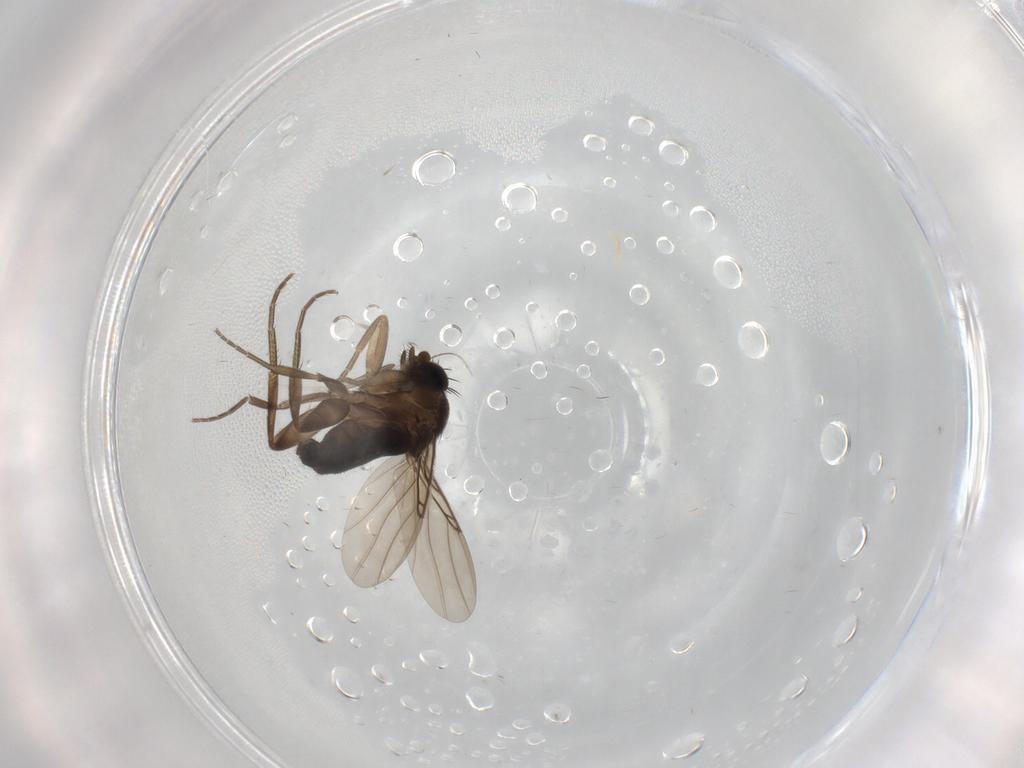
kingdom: Animalia
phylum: Arthropoda
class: Insecta
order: Diptera
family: Phoridae
